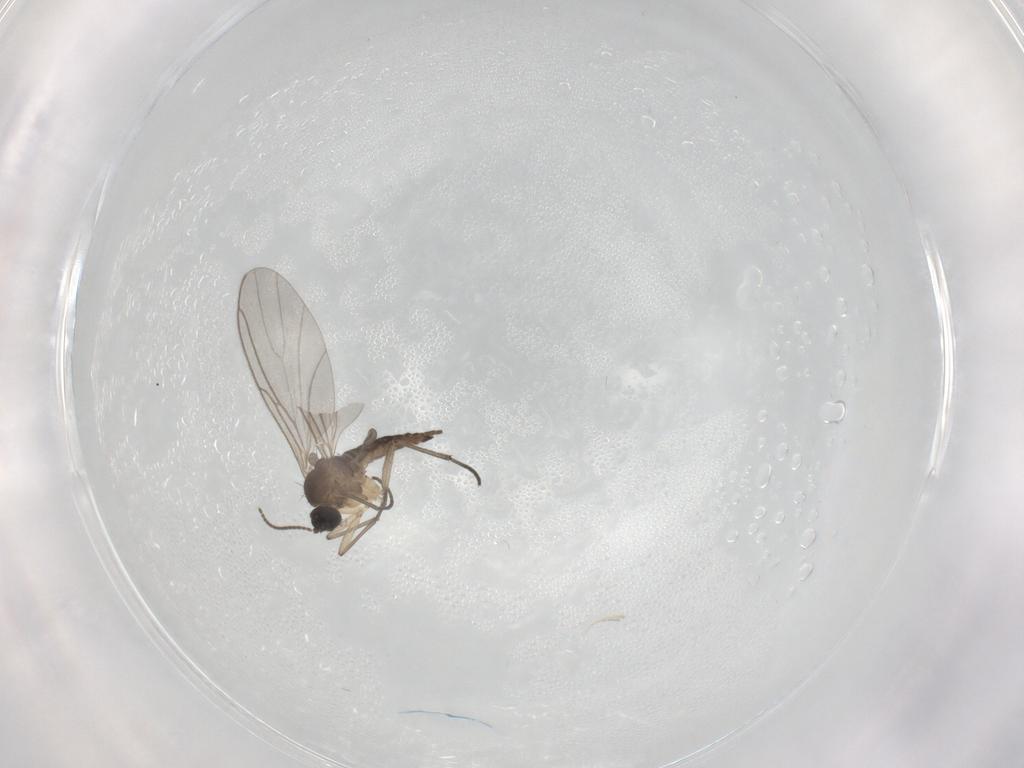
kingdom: Animalia
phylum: Arthropoda
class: Insecta
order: Diptera
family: Sciaridae
